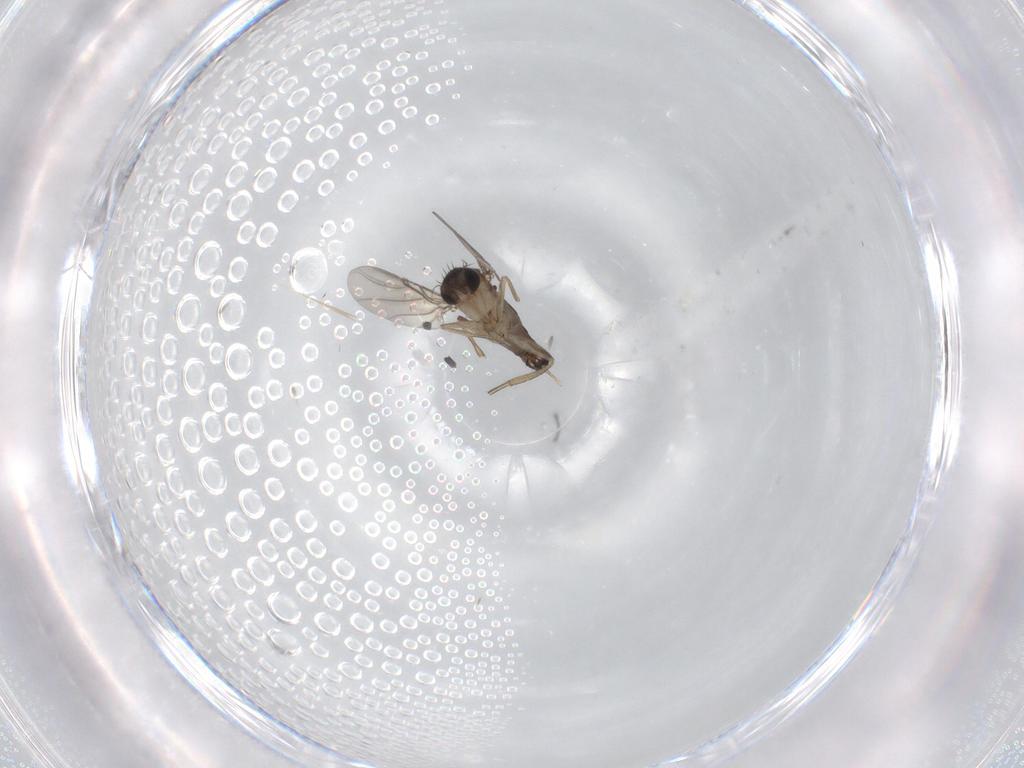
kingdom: Animalia
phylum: Arthropoda
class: Insecta
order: Diptera
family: Phoridae
